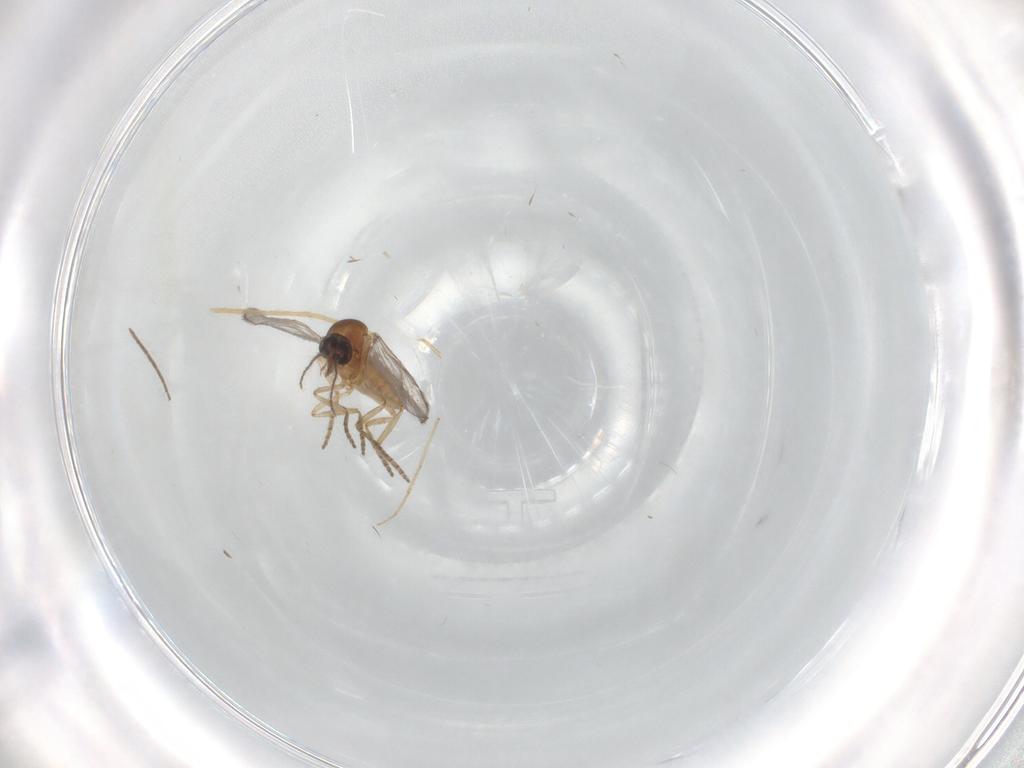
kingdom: Animalia
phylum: Arthropoda
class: Insecta
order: Diptera
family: Sciaridae
